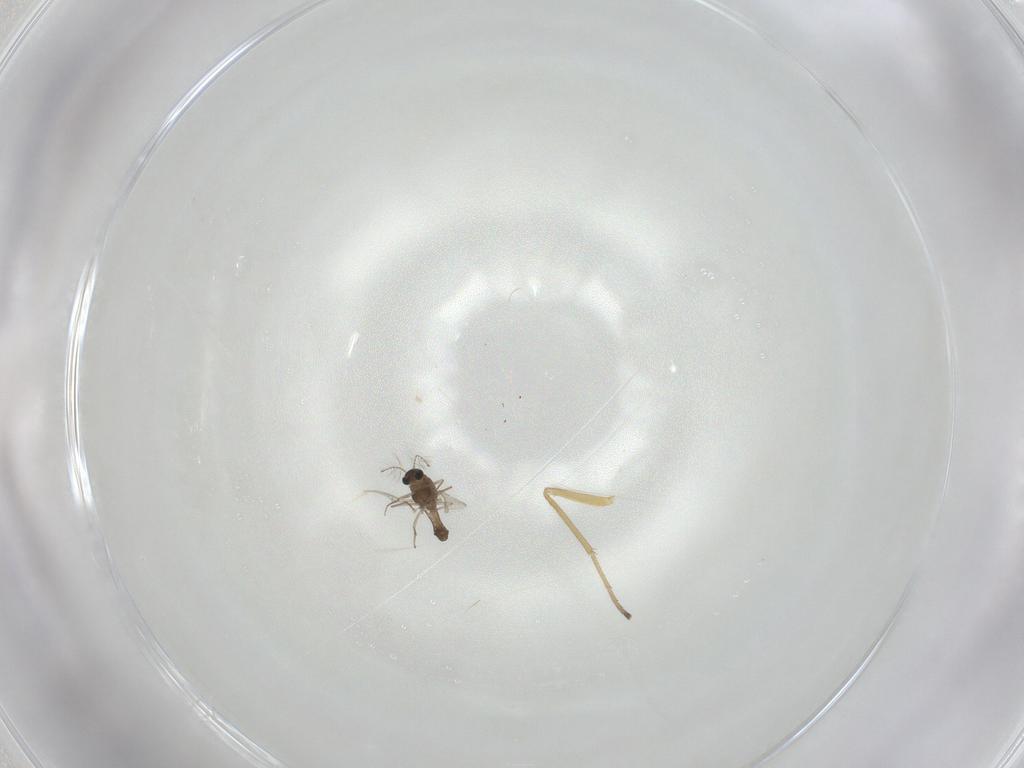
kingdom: Animalia
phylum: Arthropoda
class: Insecta
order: Diptera
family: Chironomidae
